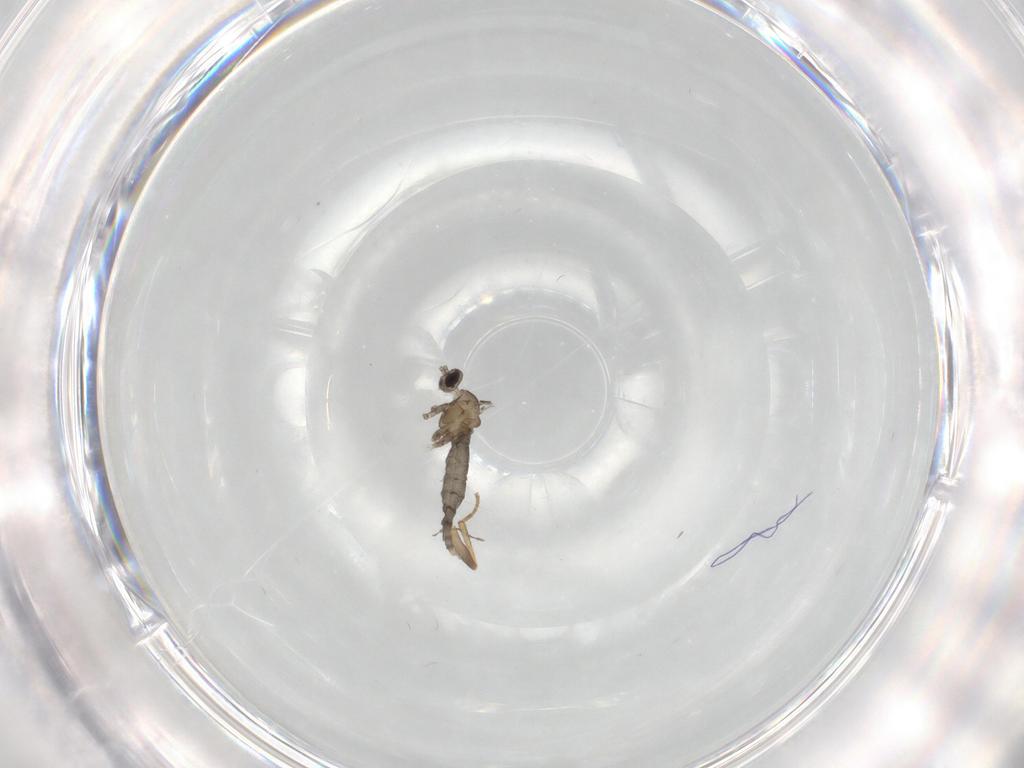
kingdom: Animalia
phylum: Arthropoda
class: Insecta
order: Diptera
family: Cecidomyiidae
